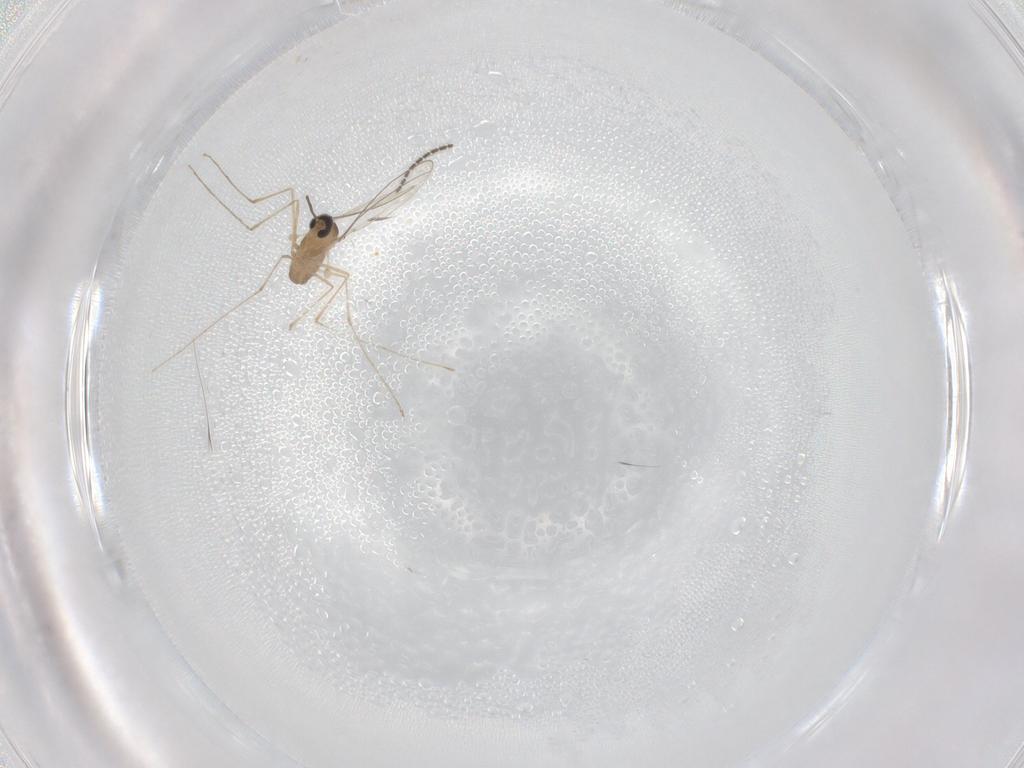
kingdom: Animalia
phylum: Arthropoda
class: Insecta
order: Diptera
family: Sciaridae
